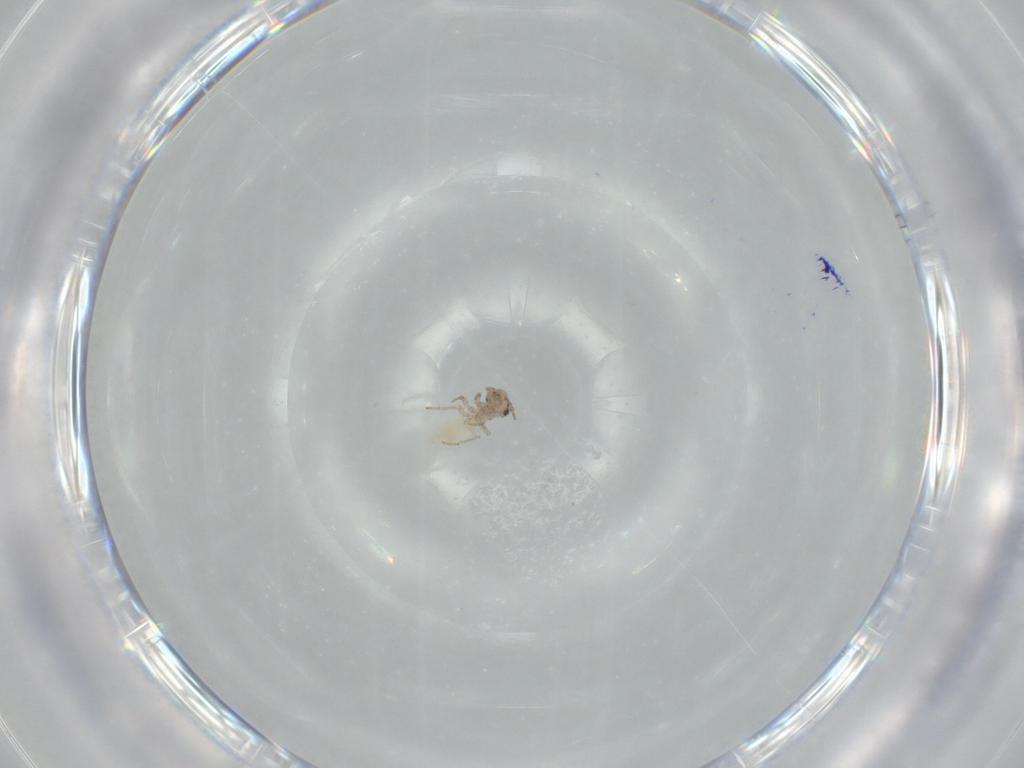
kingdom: Animalia
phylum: Arthropoda
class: Insecta
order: Psocodea
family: Lepidopsocidae
